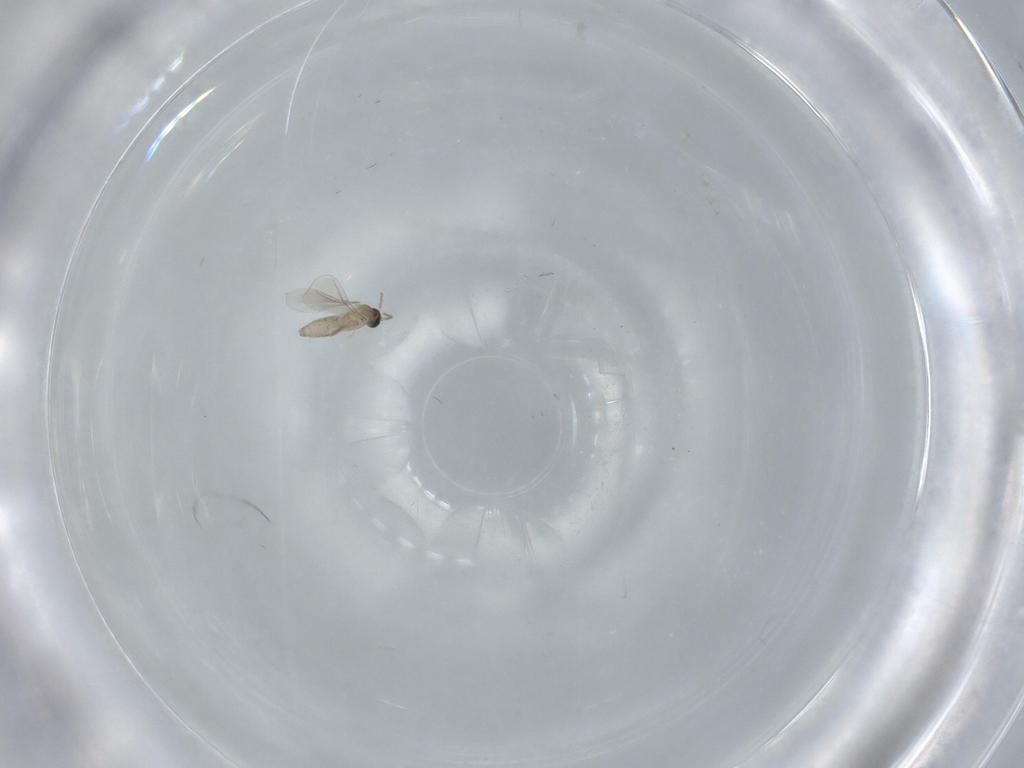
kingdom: Animalia
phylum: Arthropoda
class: Insecta
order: Diptera
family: Cecidomyiidae
